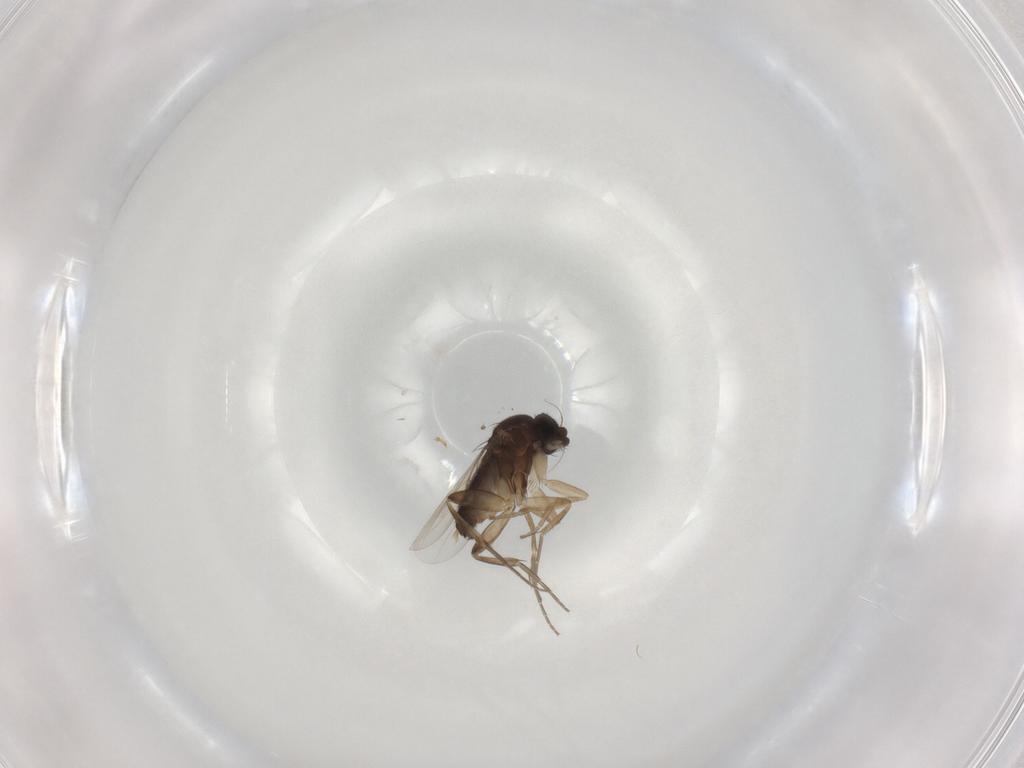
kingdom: Animalia
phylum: Arthropoda
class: Insecta
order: Diptera
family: Phoridae
